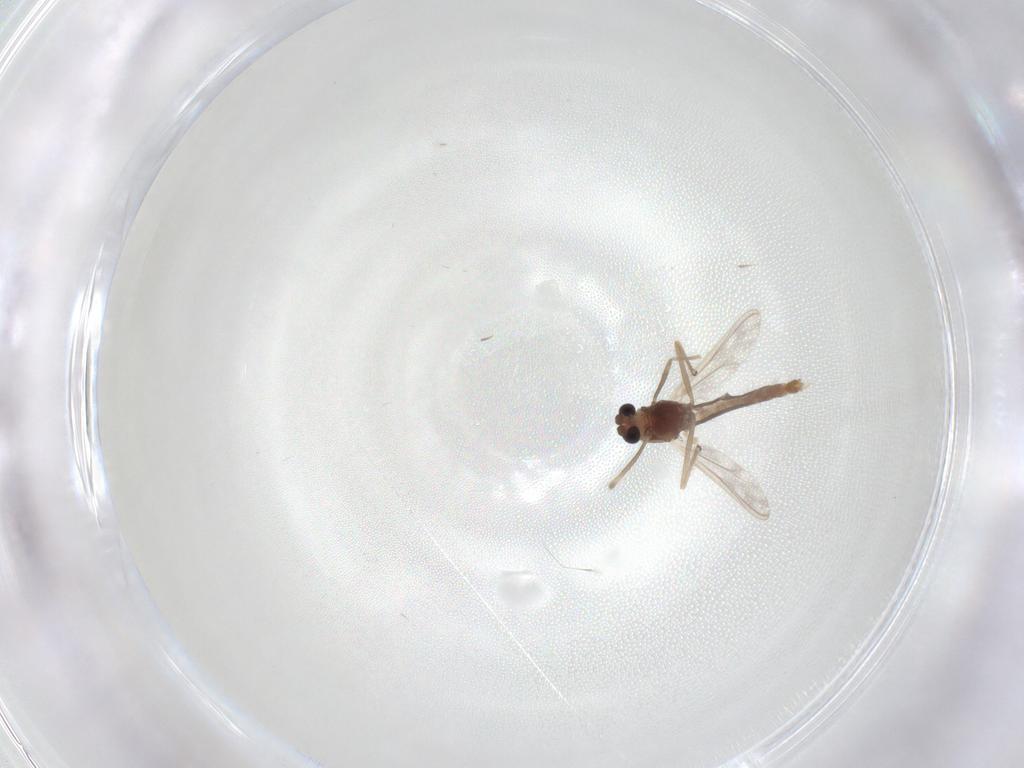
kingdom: Animalia
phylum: Arthropoda
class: Insecta
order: Diptera
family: Chironomidae
